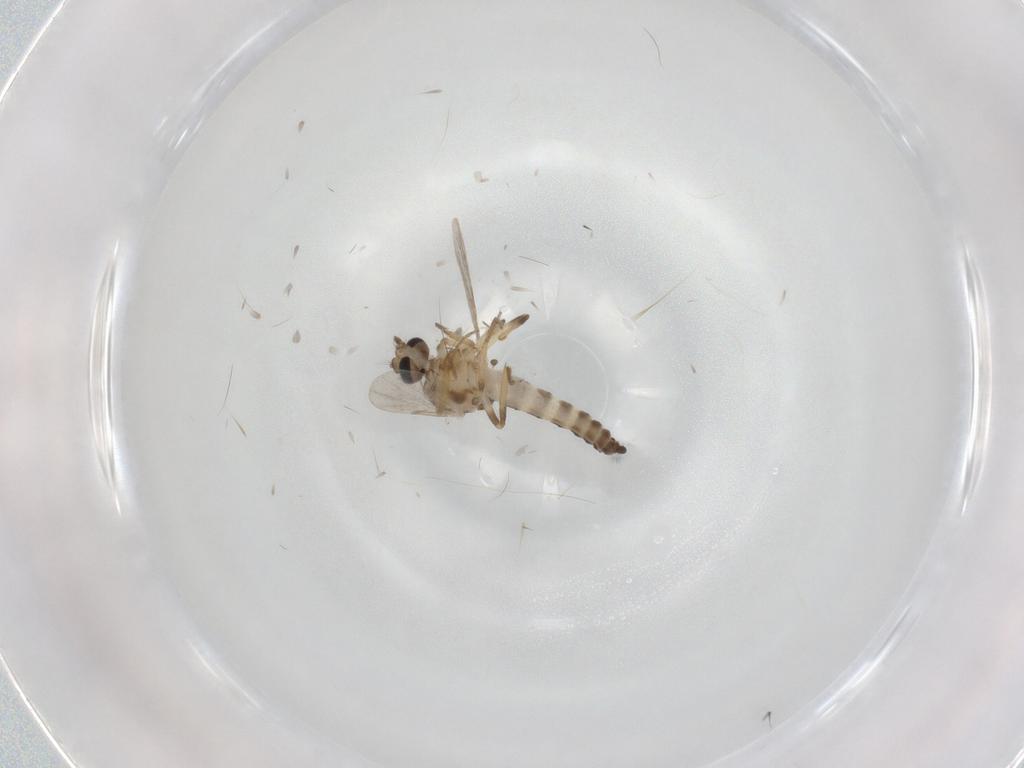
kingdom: Animalia
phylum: Arthropoda
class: Insecta
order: Diptera
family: Ceratopogonidae
